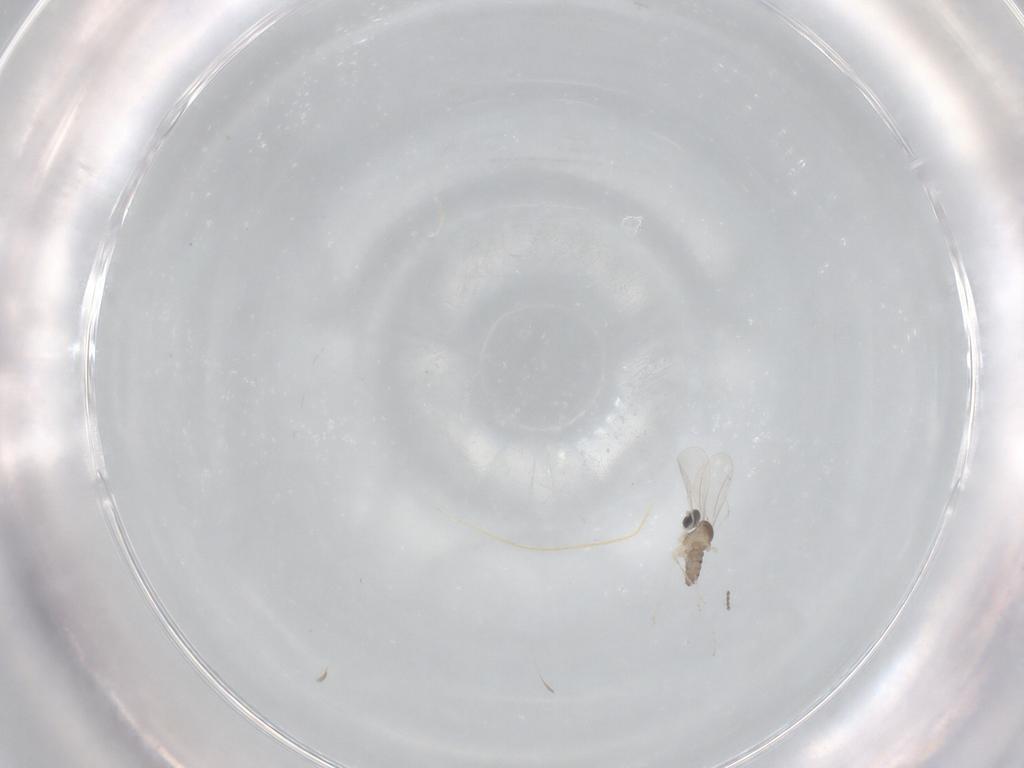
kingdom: Animalia
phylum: Arthropoda
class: Insecta
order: Diptera
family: Cecidomyiidae
